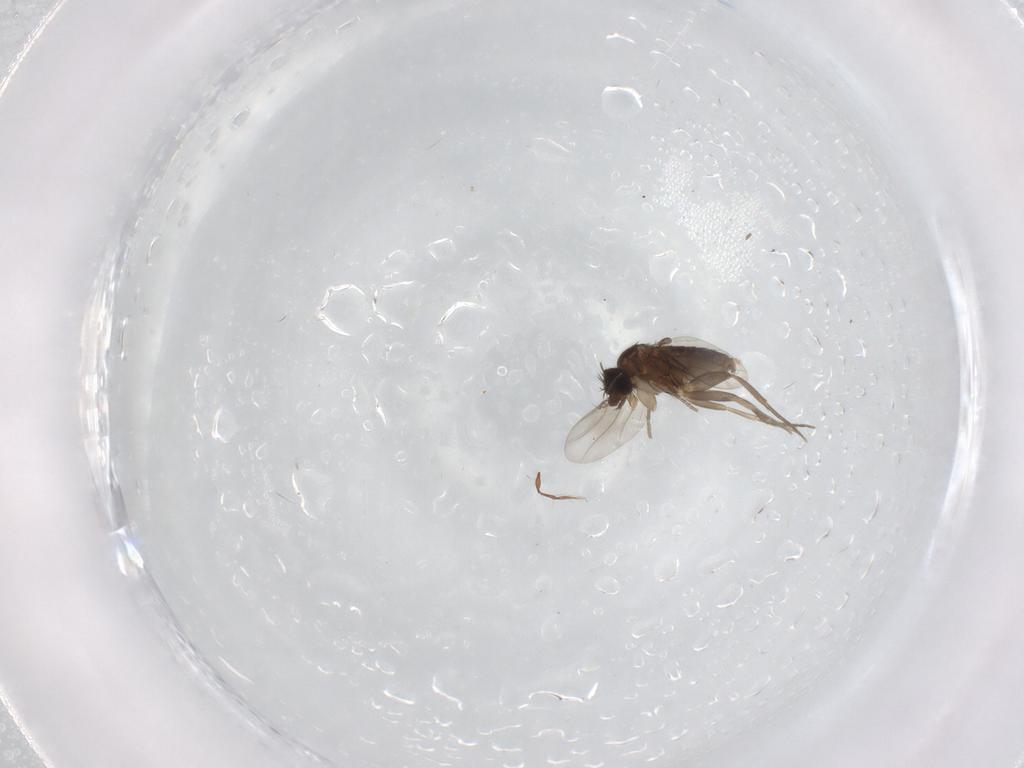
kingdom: Animalia
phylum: Arthropoda
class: Insecta
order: Diptera
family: Phoridae
